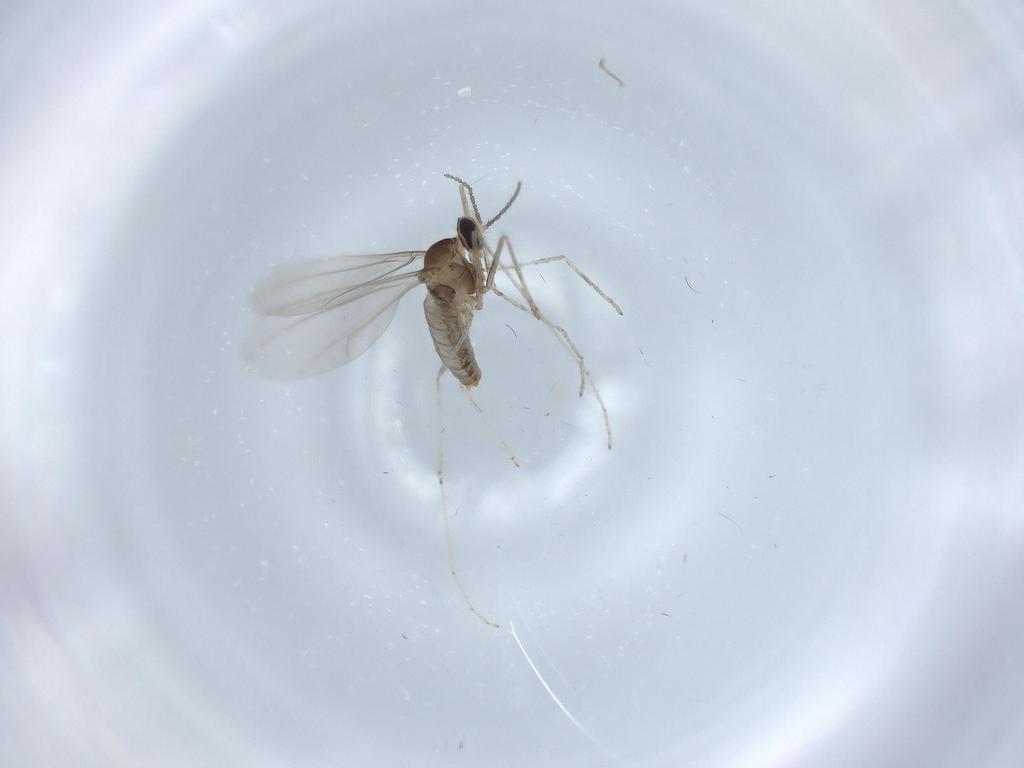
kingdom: Animalia
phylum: Arthropoda
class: Insecta
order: Diptera
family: Cecidomyiidae
